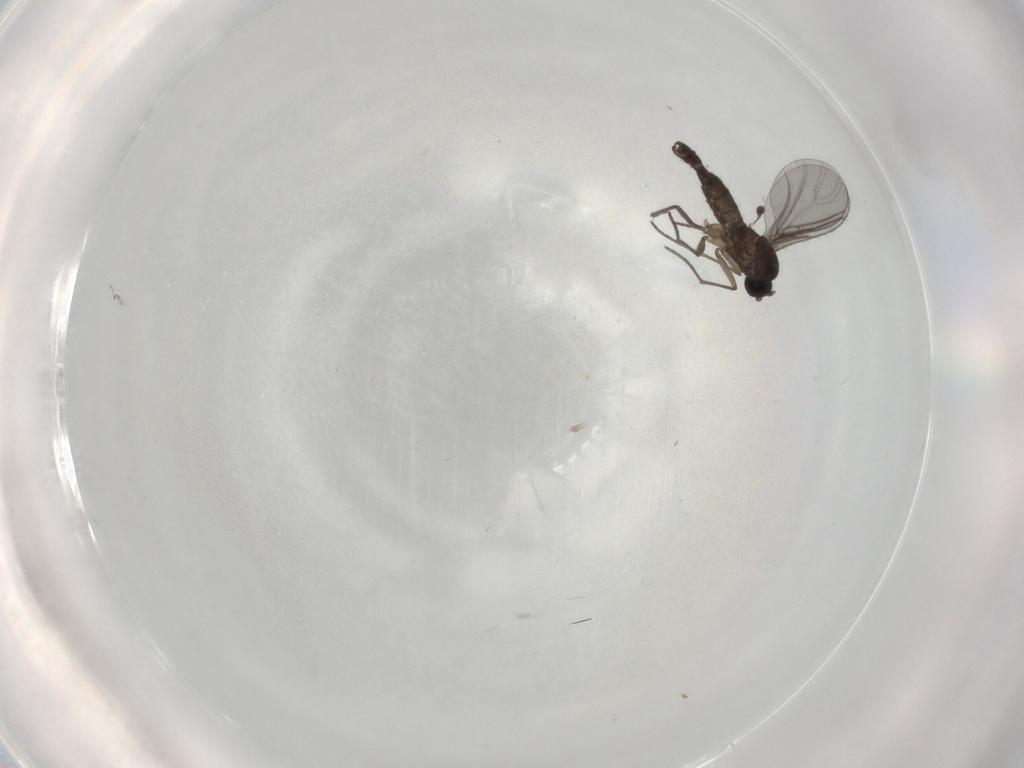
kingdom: Animalia
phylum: Arthropoda
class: Insecta
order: Diptera
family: Sciaridae
